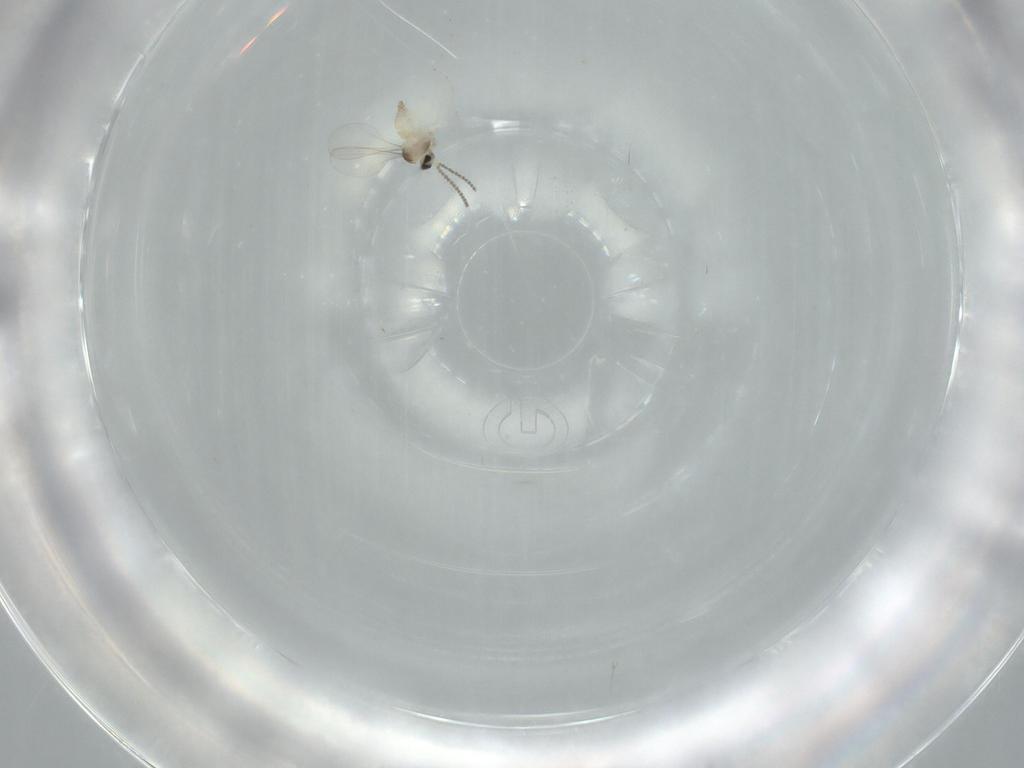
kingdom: Animalia
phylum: Arthropoda
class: Insecta
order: Diptera
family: Cecidomyiidae
